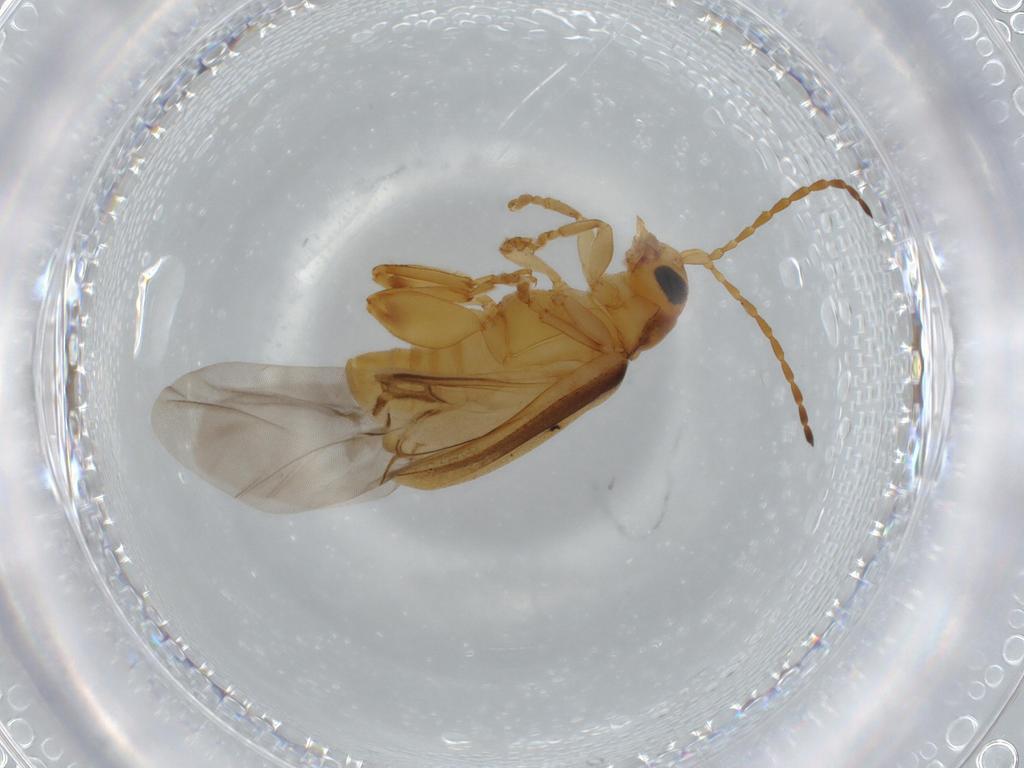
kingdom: Animalia
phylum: Arthropoda
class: Insecta
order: Coleoptera
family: Chrysomelidae
